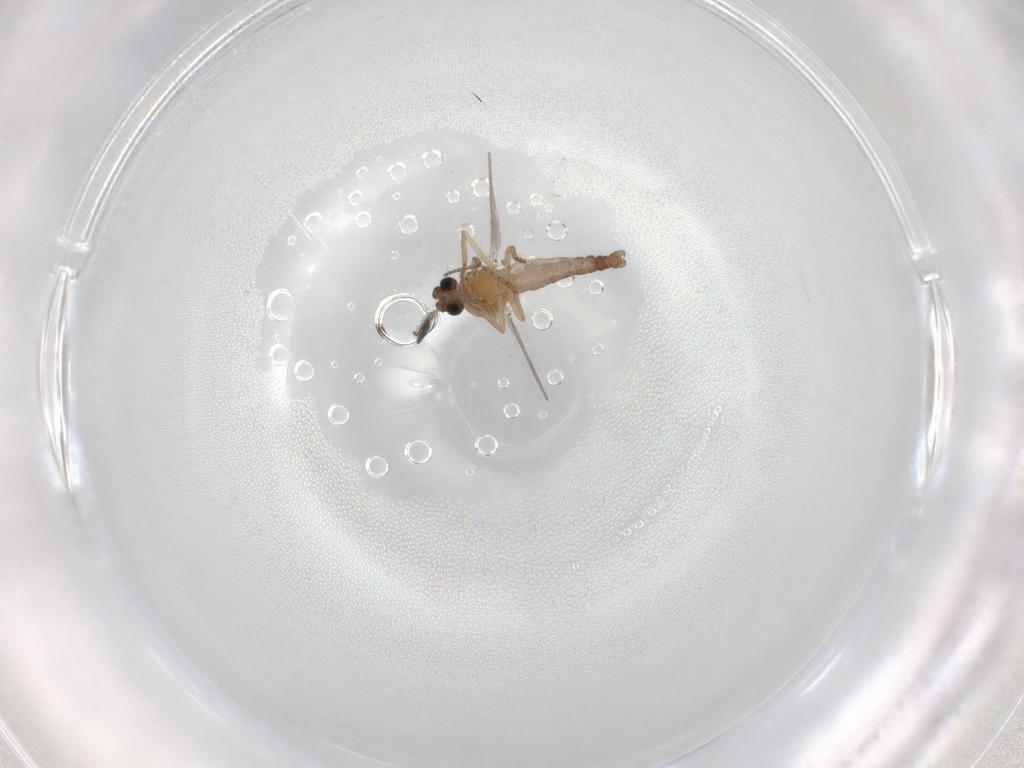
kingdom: Animalia
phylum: Arthropoda
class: Insecta
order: Diptera
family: Ceratopogonidae
